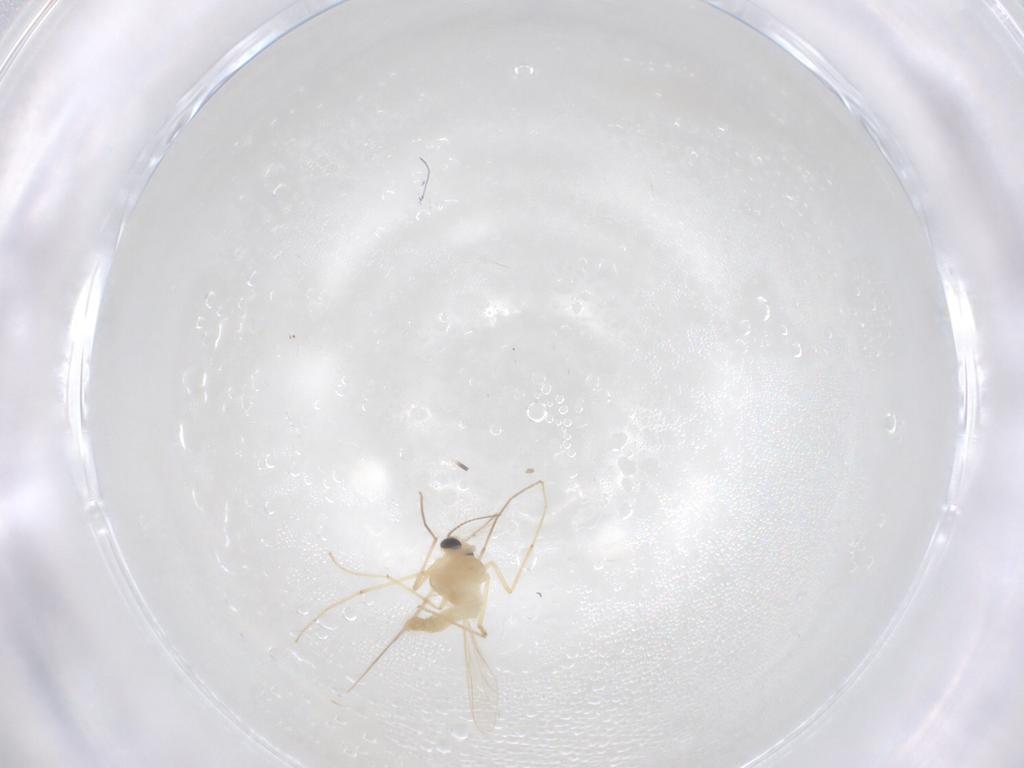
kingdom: Animalia
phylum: Arthropoda
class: Insecta
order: Diptera
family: Chironomidae
